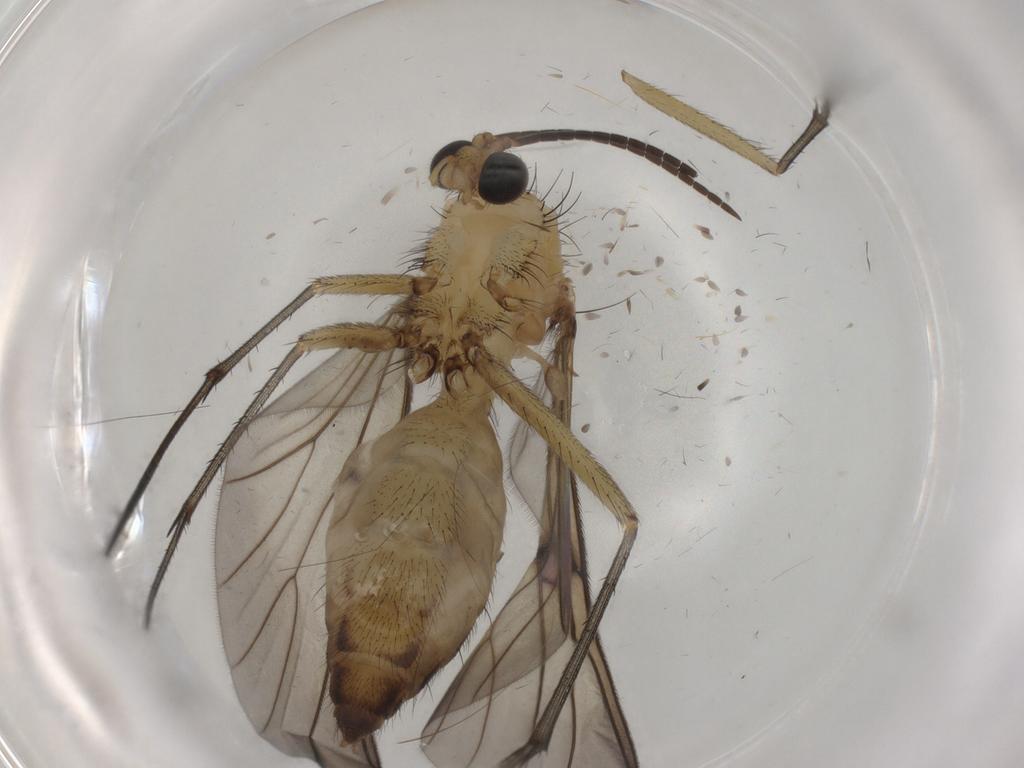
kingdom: Animalia
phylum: Arthropoda
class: Insecta
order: Diptera
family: Mycetophilidae
